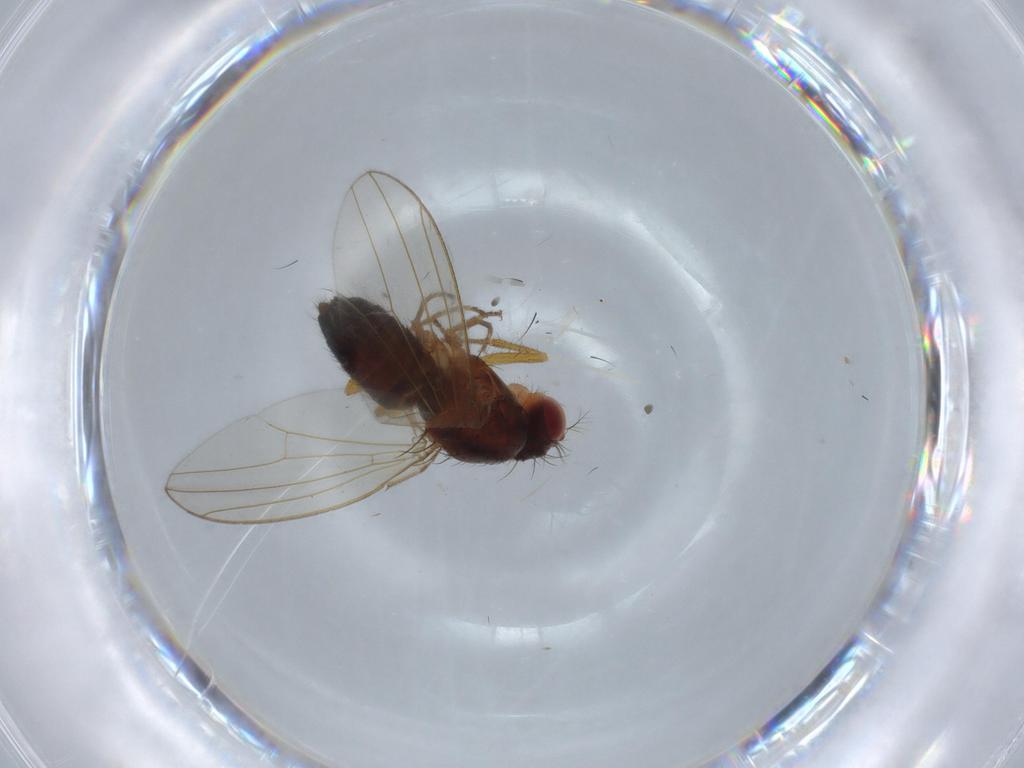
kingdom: Animalia
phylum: Arthropoda
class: Insecta
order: Diptera
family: Drosophilidae
